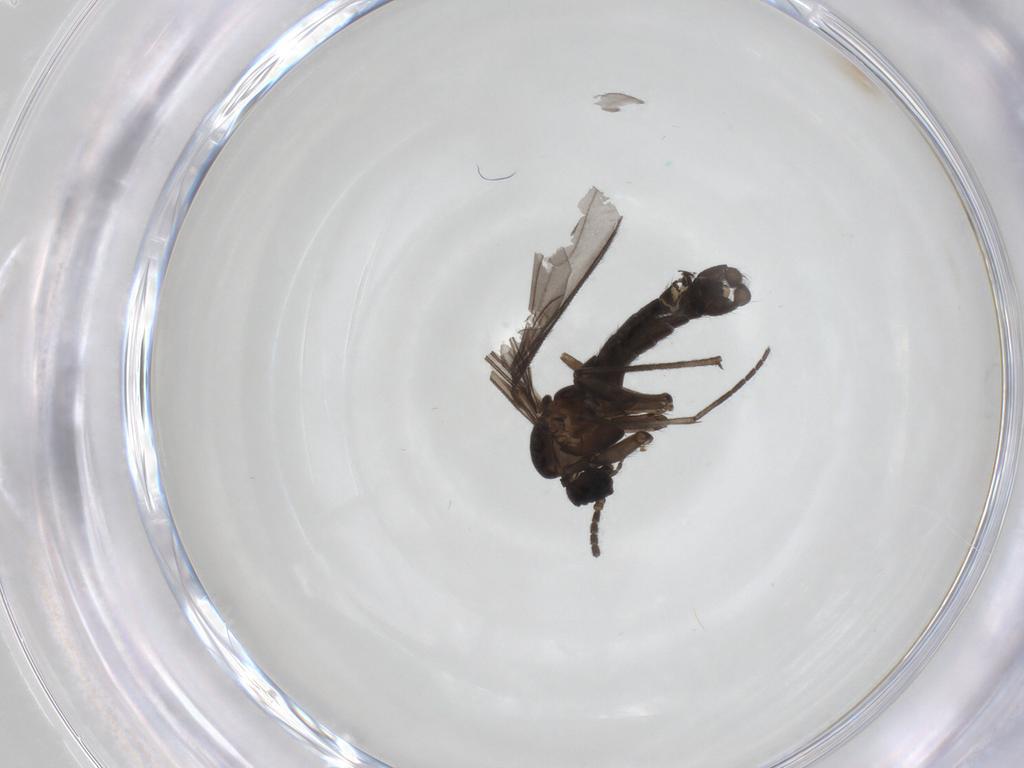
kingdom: Animalia
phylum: Arthropoda
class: Insecta
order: Diptera
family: Sciaridae
